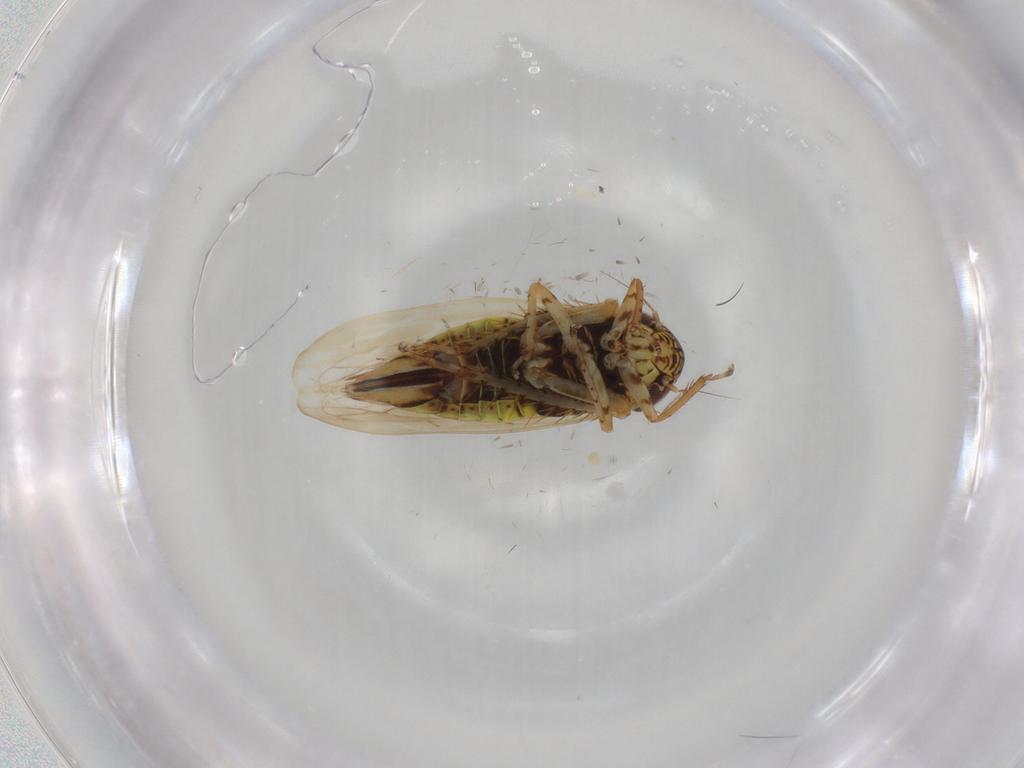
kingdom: Animalia
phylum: Arthropoda
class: Insecta
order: Hemiptera
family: Cicadellidae
